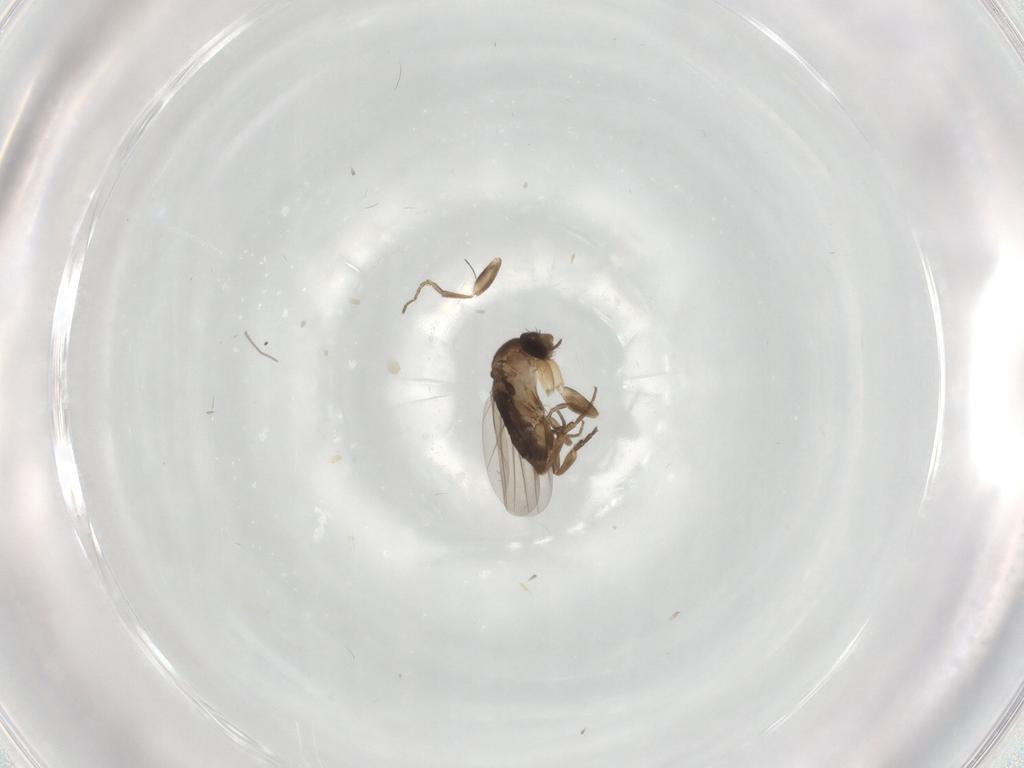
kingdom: Animalia
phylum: Arthropoda
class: Insecta
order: Diptera
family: Phoridae
